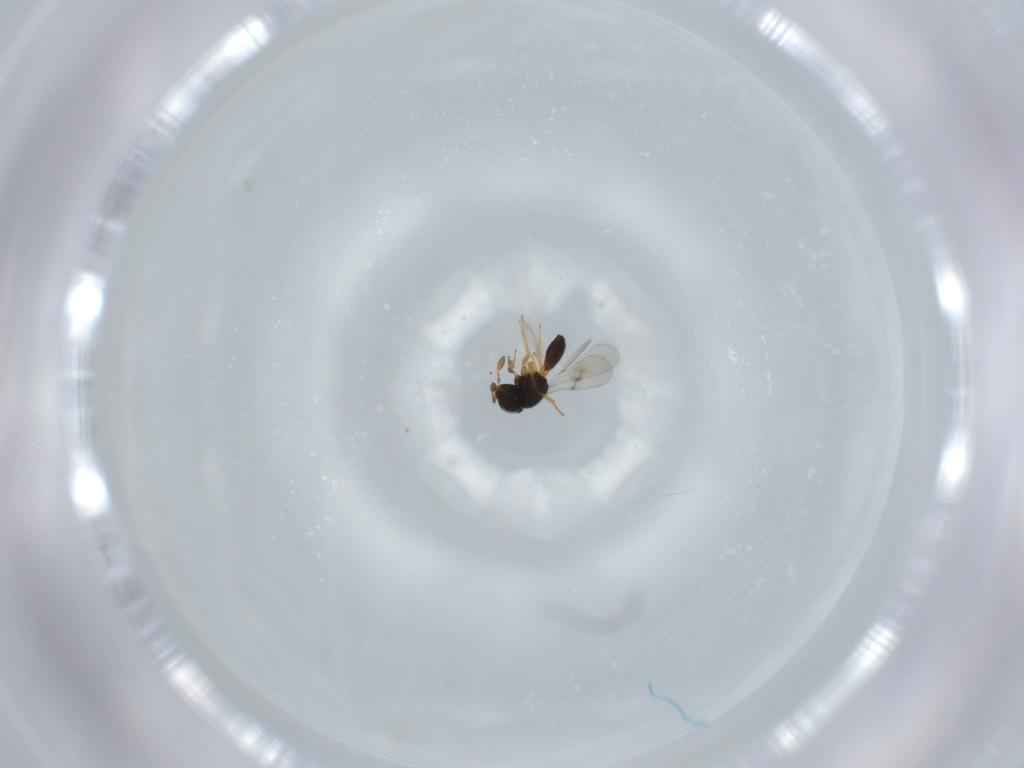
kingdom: Animalia
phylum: Arthropoda
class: Insecta
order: Hymenoptera
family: Scelionidae
